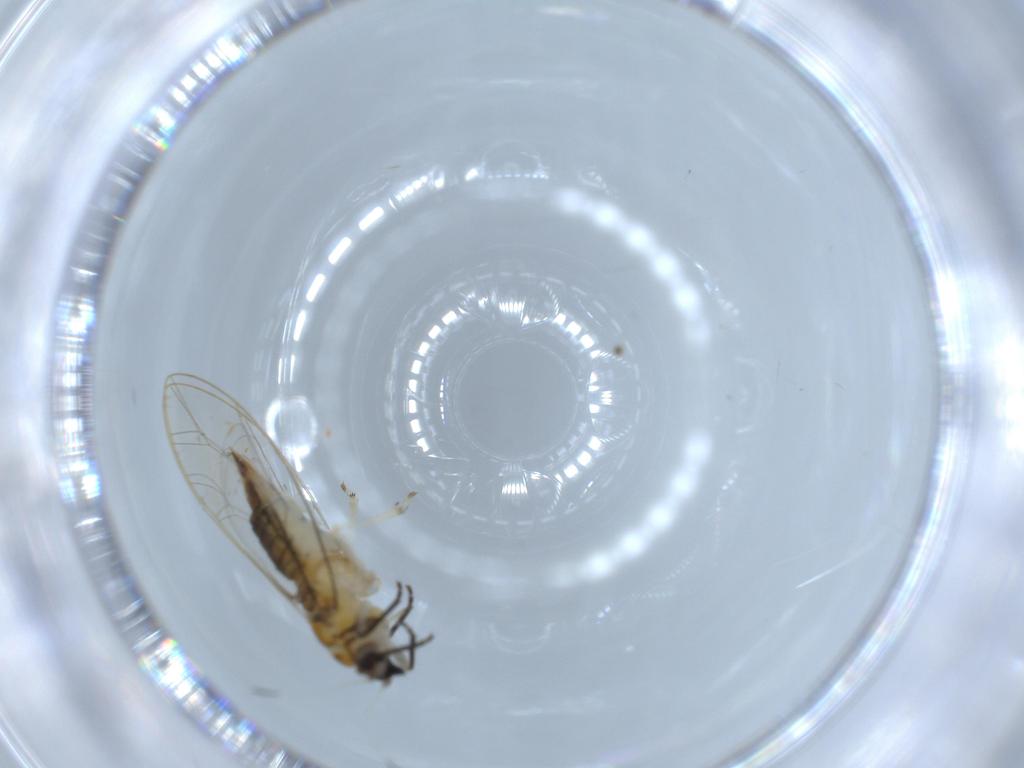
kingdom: Animalia
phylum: Arthropoda
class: Insecta
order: Hemiptera
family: Triozidae
